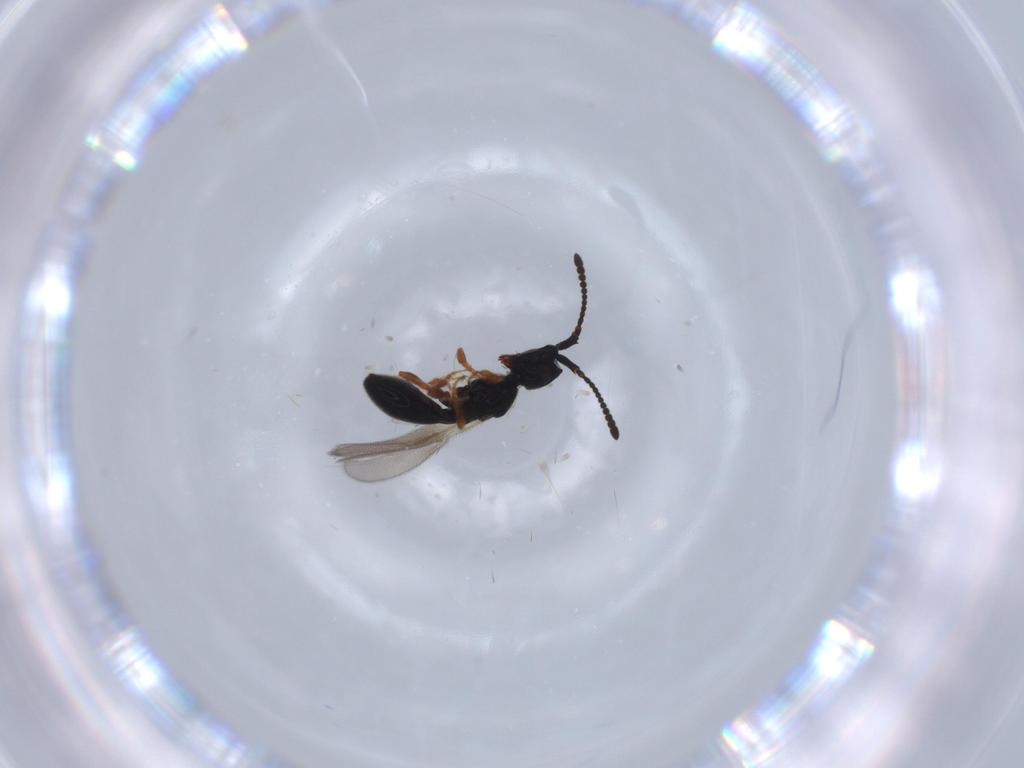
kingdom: Animalia
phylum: Arthropoda
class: Insecta
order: Hymenoptera
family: Diapriidae
